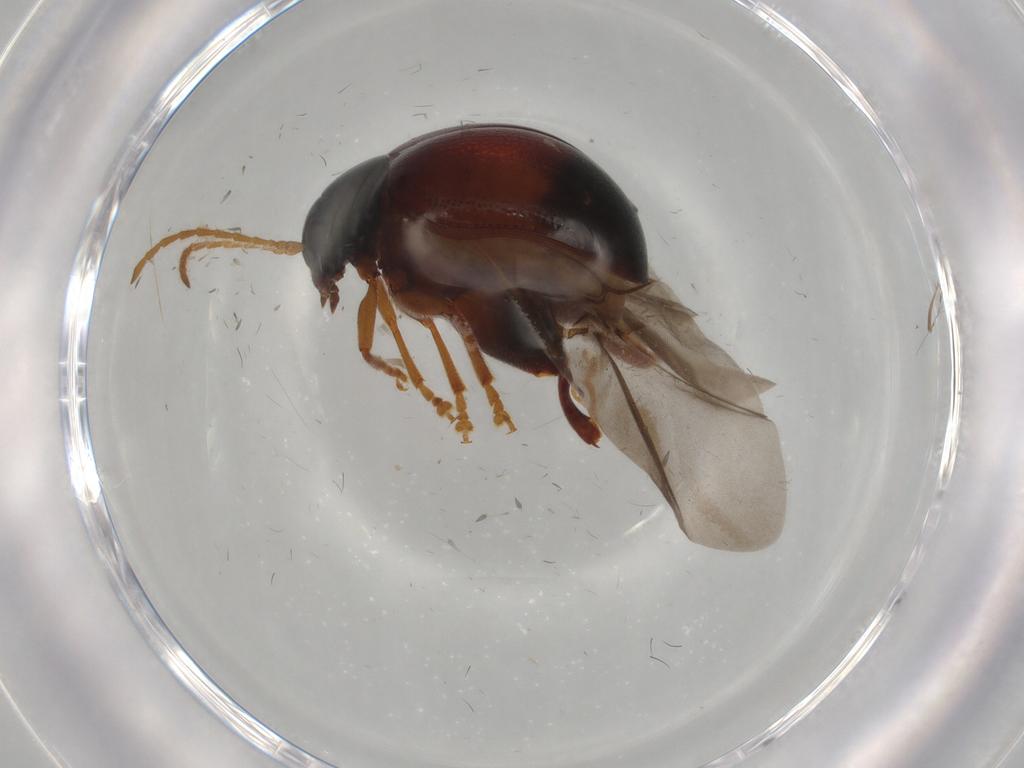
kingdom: Animalia
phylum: Arthropoda
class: Insecta
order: Coleoptera
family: Chrysomelidae
